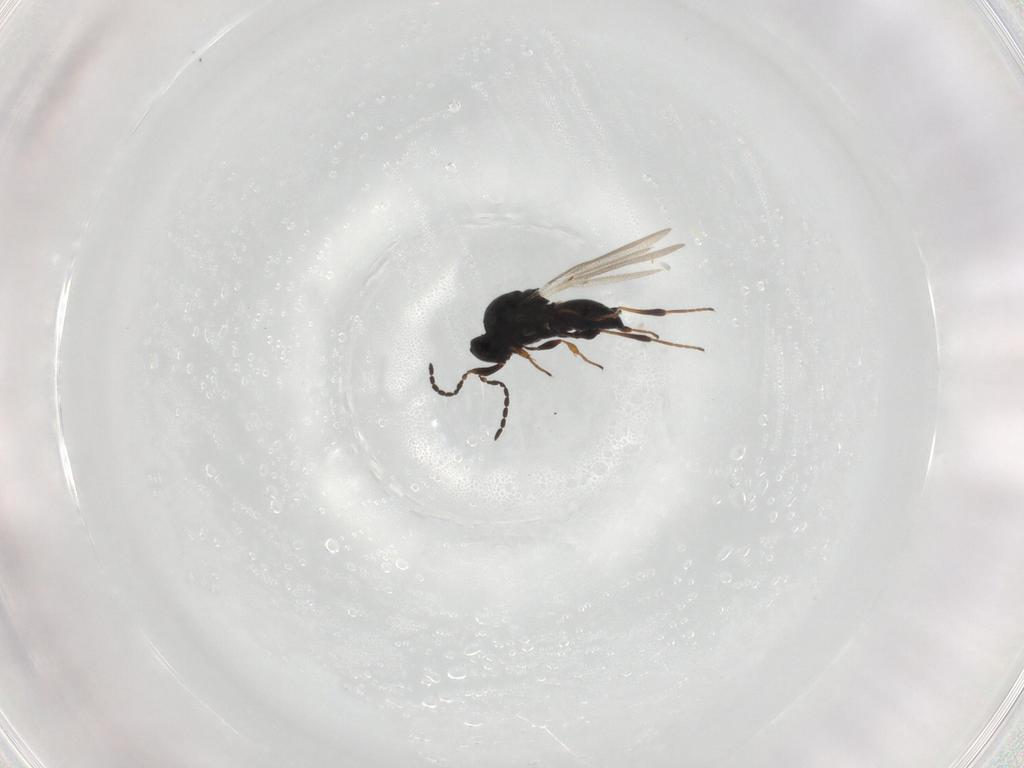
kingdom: Animalia
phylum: Arthropoda
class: Insecta
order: Hymenoptera
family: Platygastridae
